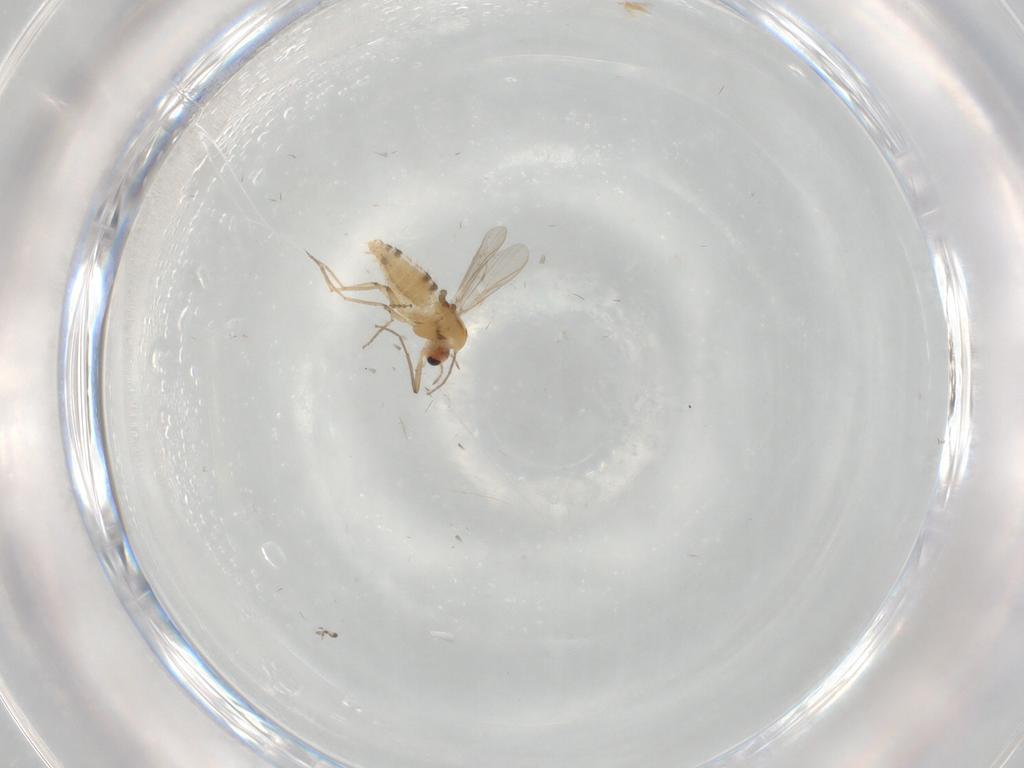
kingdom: Animalia
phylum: Arthropoda
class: Insecta
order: Diptera
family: Chironomidae
